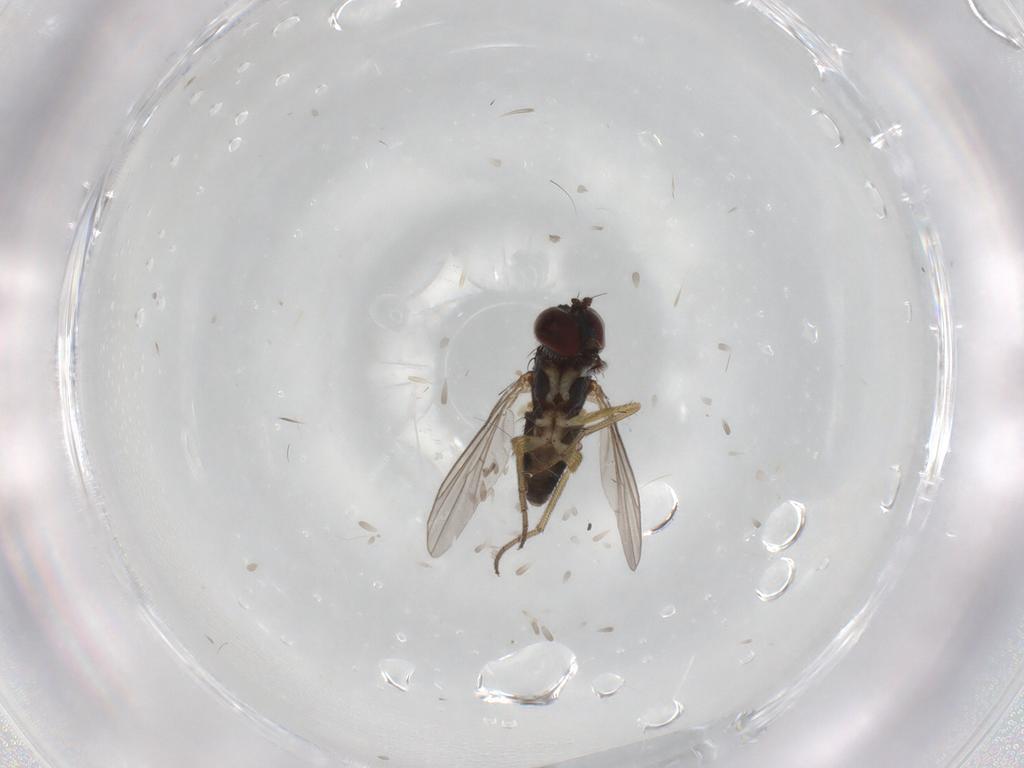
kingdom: Animalia
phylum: Arthropoda
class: Insecta
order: Diptera
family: Dolichopodidae
